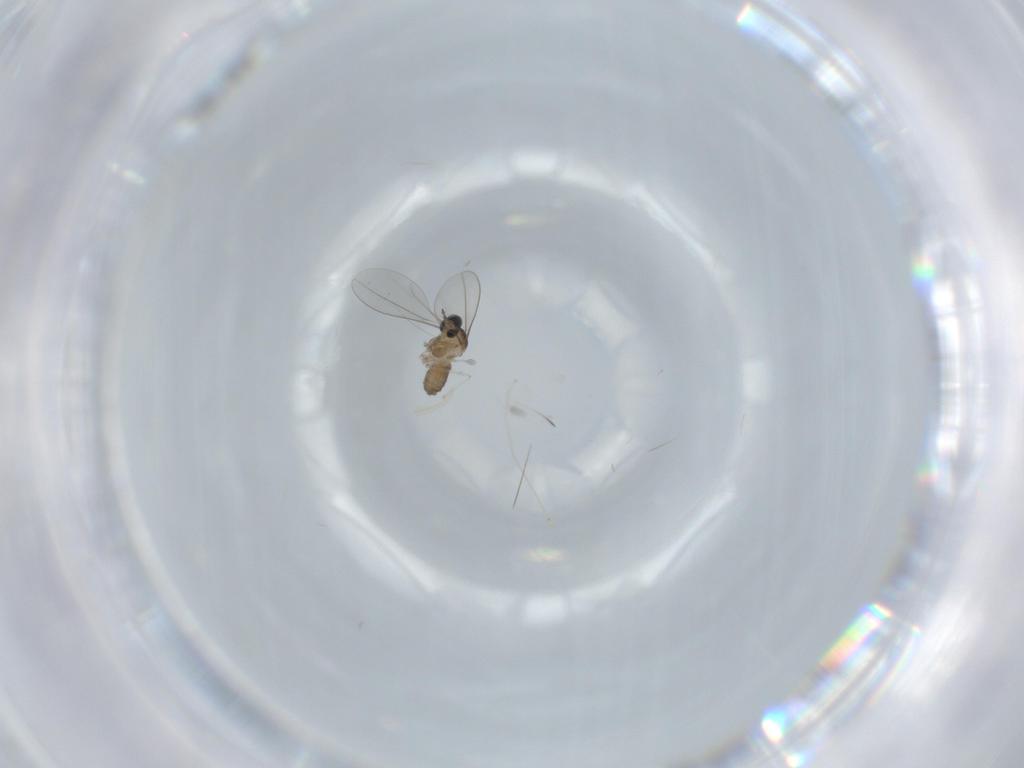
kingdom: Animalia
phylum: Arthropoda
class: Insecta
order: Diptera
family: Cecidomyiidae
